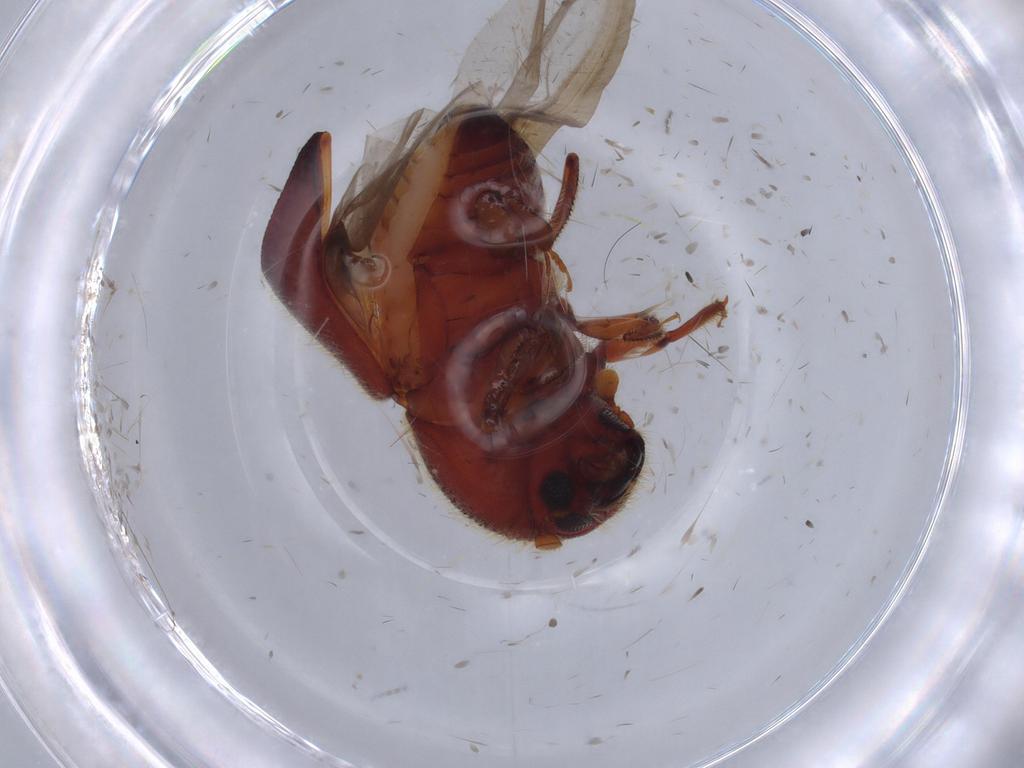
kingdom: Animalia
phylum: Arthropoda
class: Insecta
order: Coleoptera
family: Curculionidae
